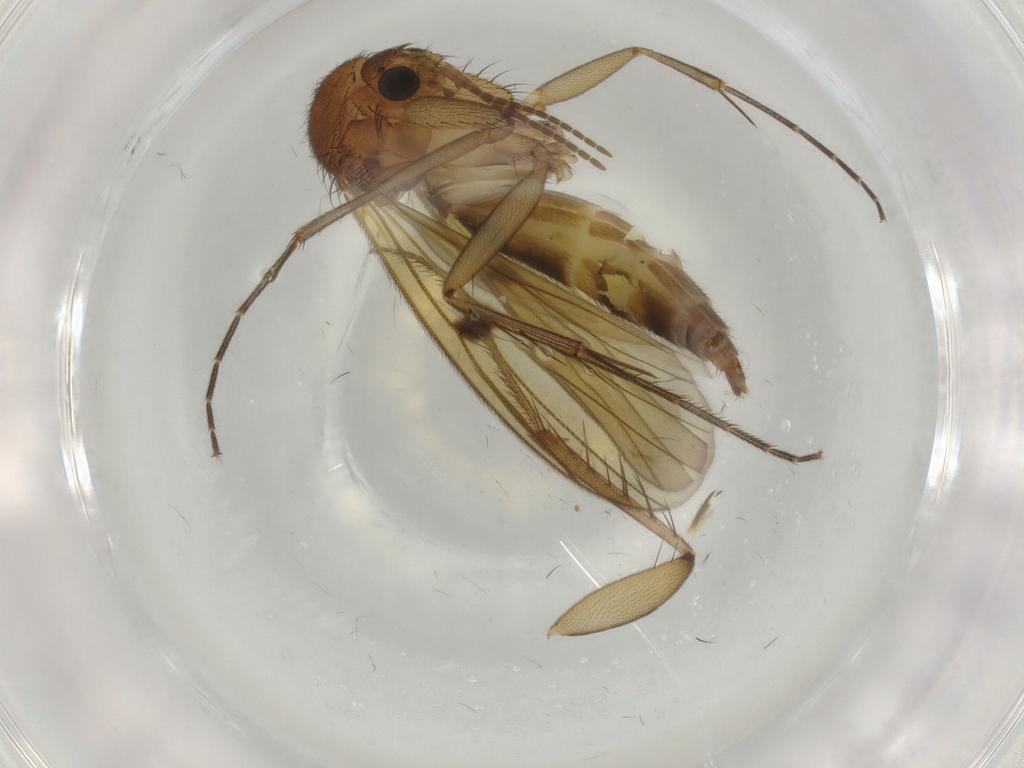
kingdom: Animalia
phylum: Arthropoda
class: Insecta
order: Diptera
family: Mycetophilidae
